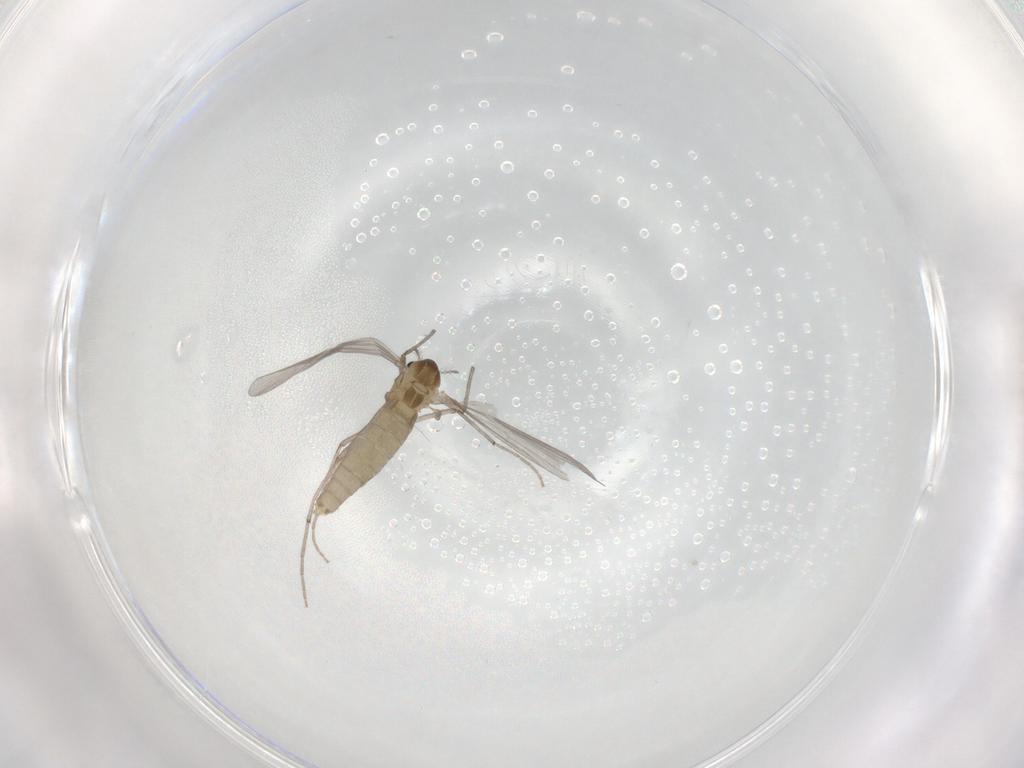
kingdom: Animalia
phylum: Arthropoda
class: Insecta
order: Diptera
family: Chironomidae
